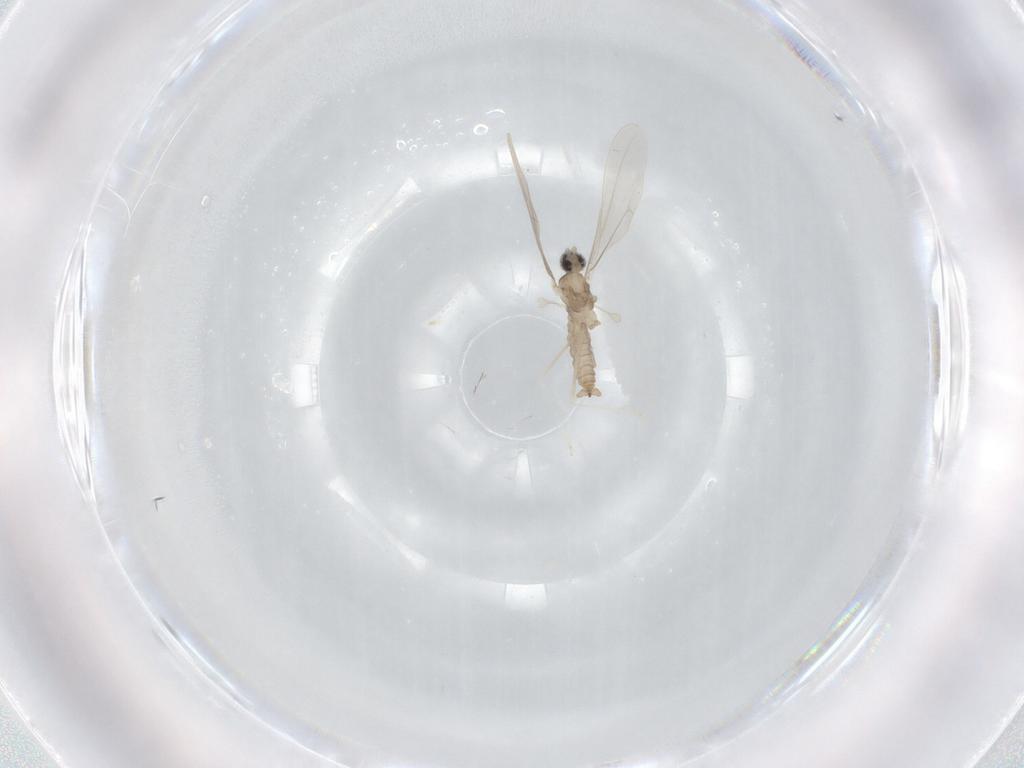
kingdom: Animalia
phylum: Arthropoda
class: Insecta
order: Diptera
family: Cecidomyiidae
